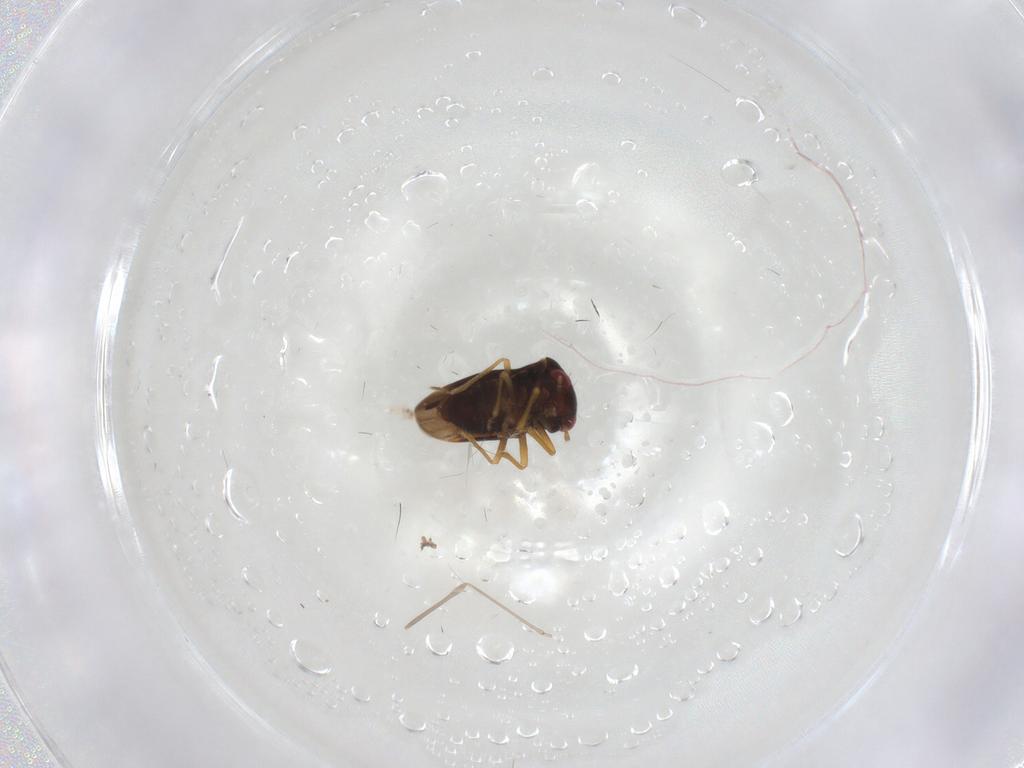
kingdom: Animalia
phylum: Arthropoda
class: Insecta
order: Hemiptera
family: Schizopteridae
